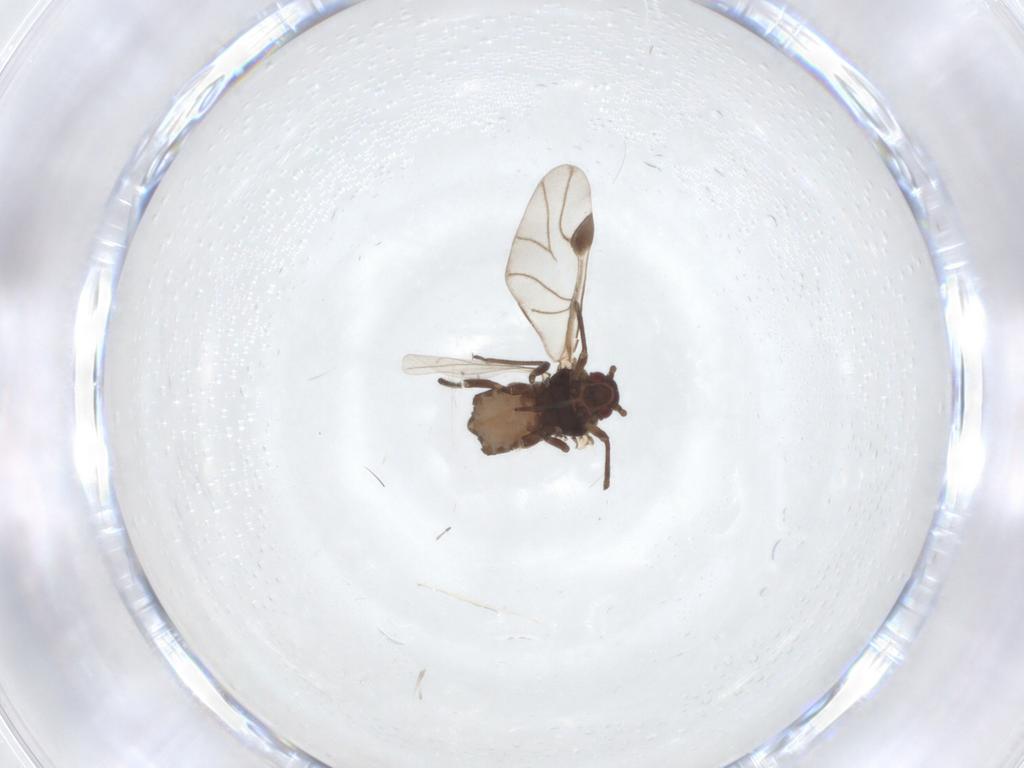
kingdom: Animalia
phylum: Arthropoda
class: Insecta
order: Hemiptera
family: Aphididae
